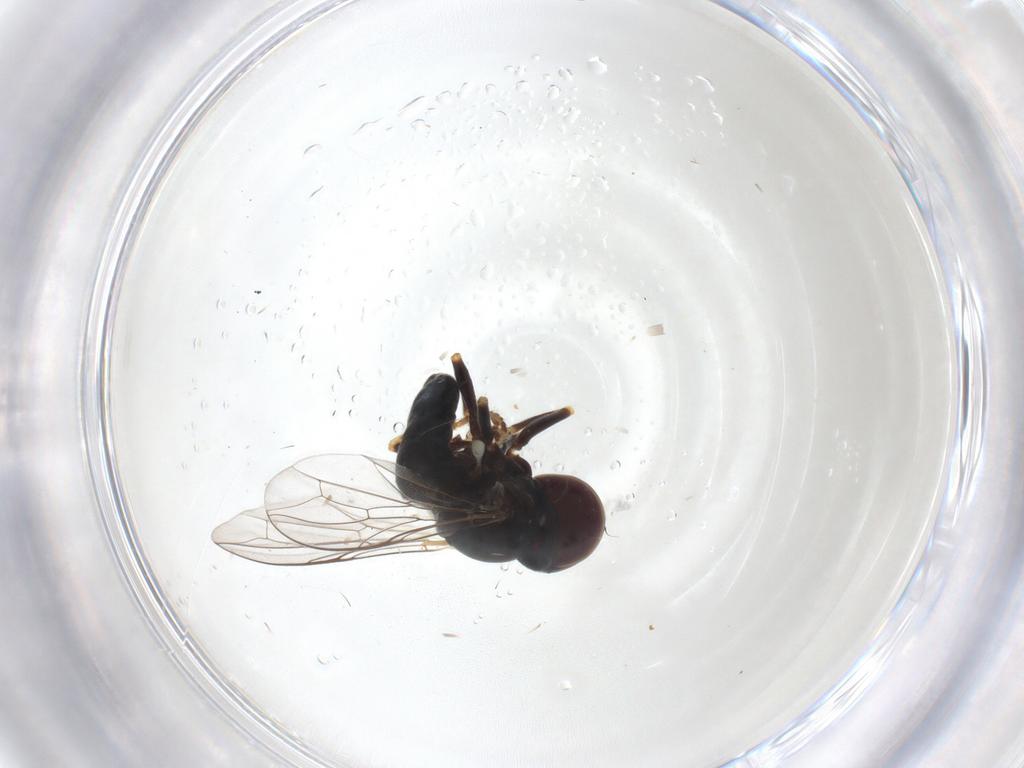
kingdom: Animalia
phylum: Arthropoda
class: Insecta
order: Diptera
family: Pipunculidae
